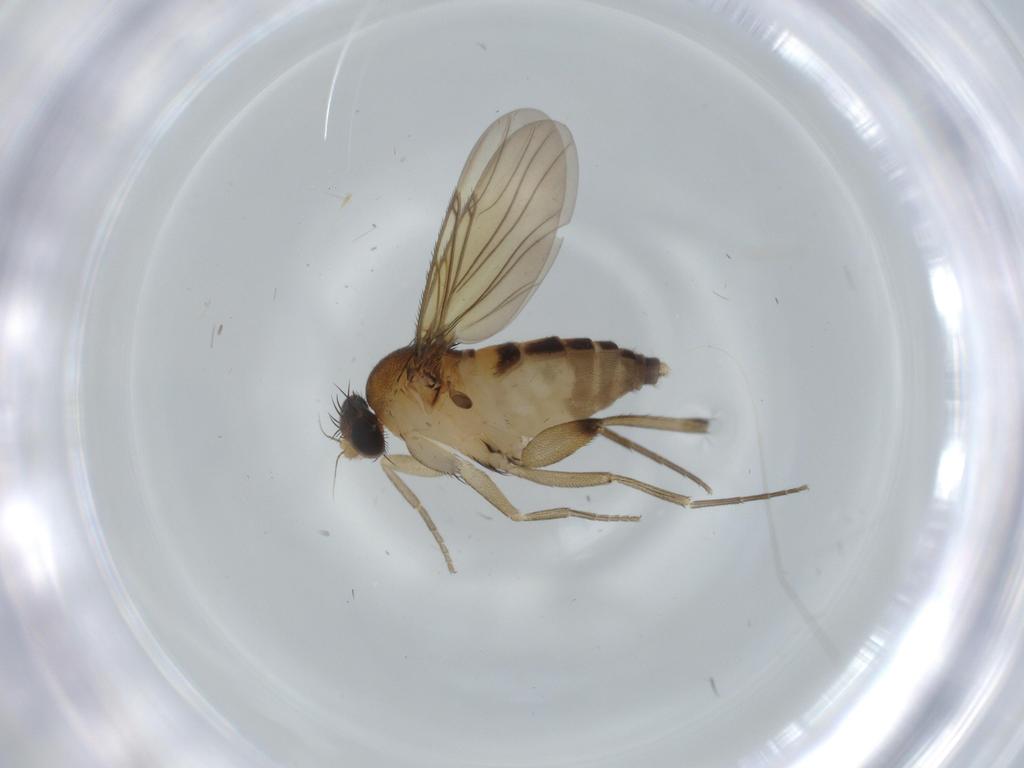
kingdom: Animalia
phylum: Arthropoda
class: Insecta
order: Diptera
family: Phoridae
